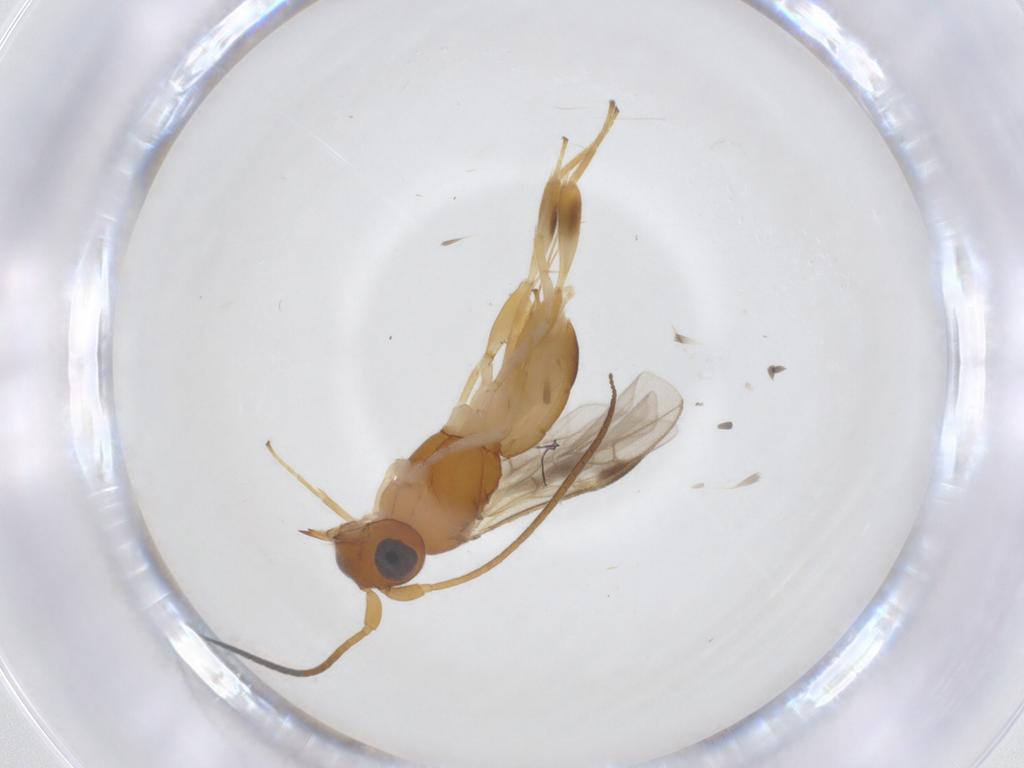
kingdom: Animalia
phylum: Arthropoda
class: Insecta
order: Hymenoptera
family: Braconidae
